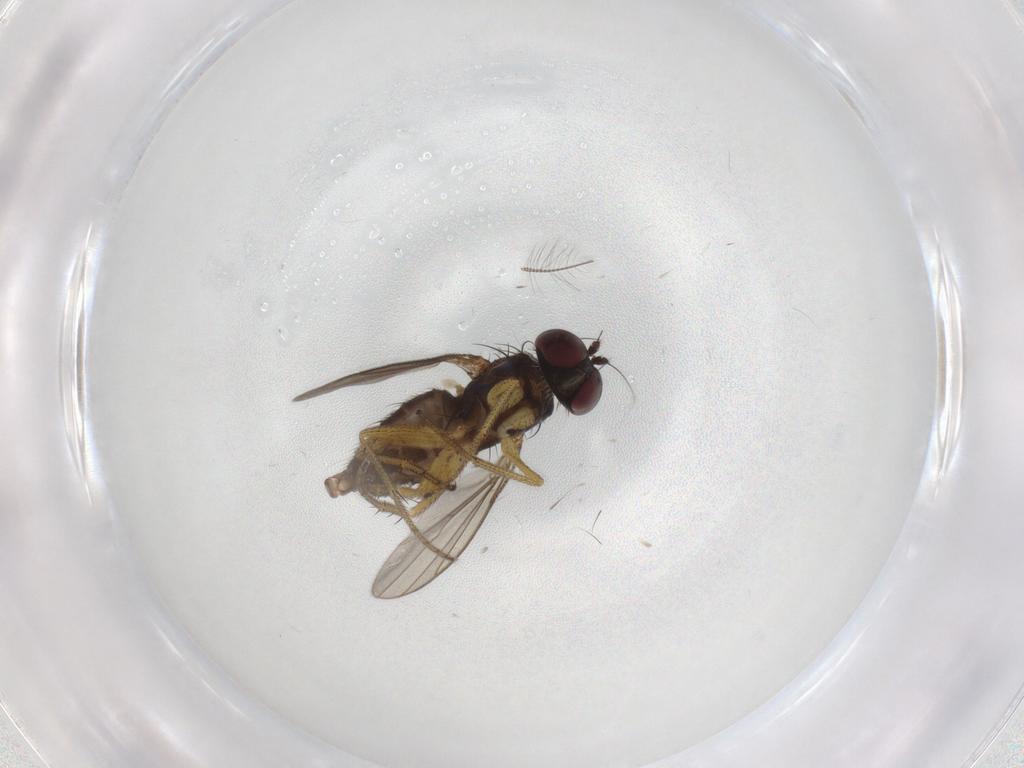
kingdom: Animalia
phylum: Arthropoda
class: Insecta
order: Diptera
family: Dolichopodidae
